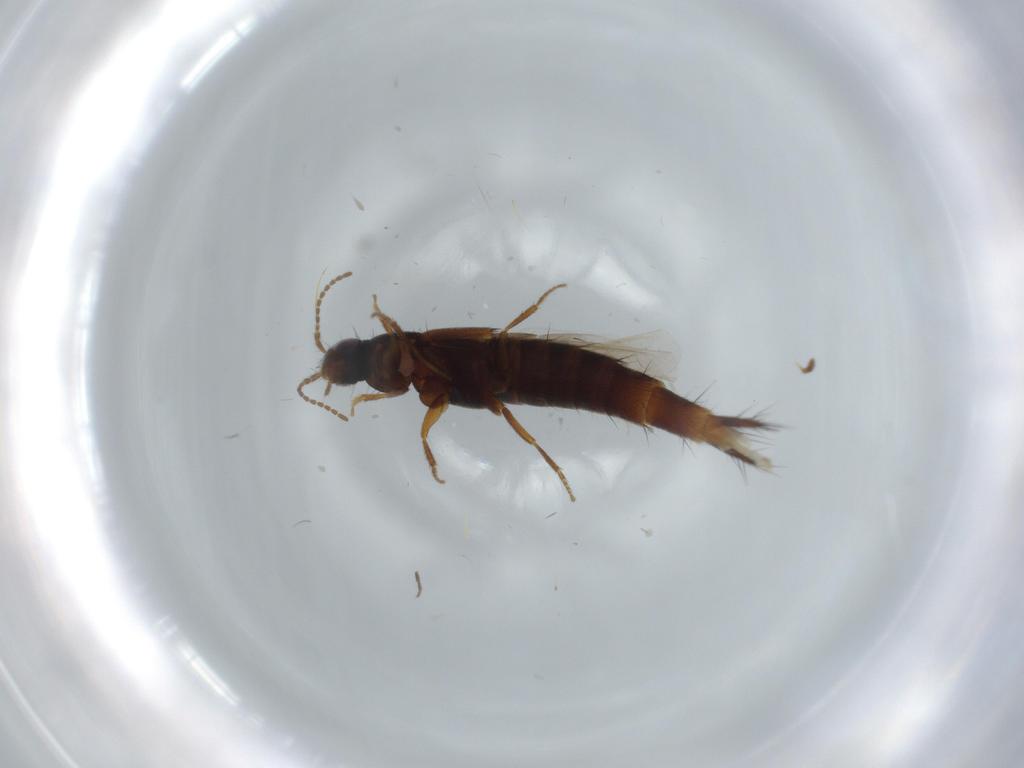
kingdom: Animalia
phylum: Arthropoda
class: Insecta
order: Coleoptera
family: Staphylinidae
